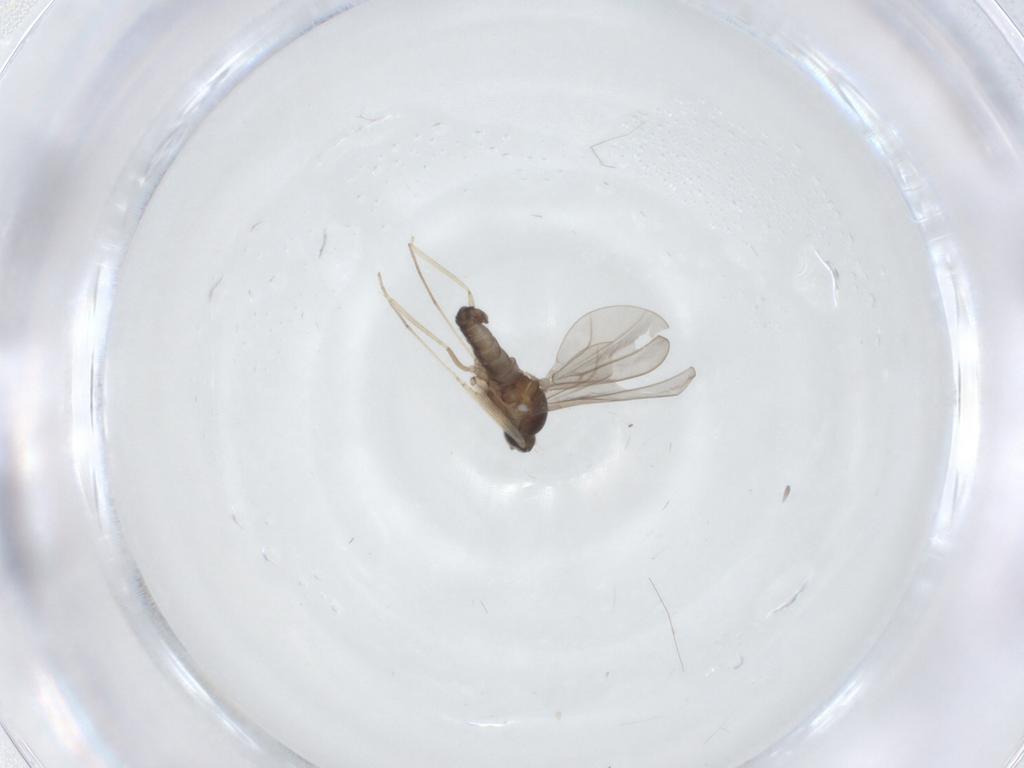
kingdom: Animalia
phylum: Arthropoda
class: Insecta
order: Diptera
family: Cecidomyiidae
